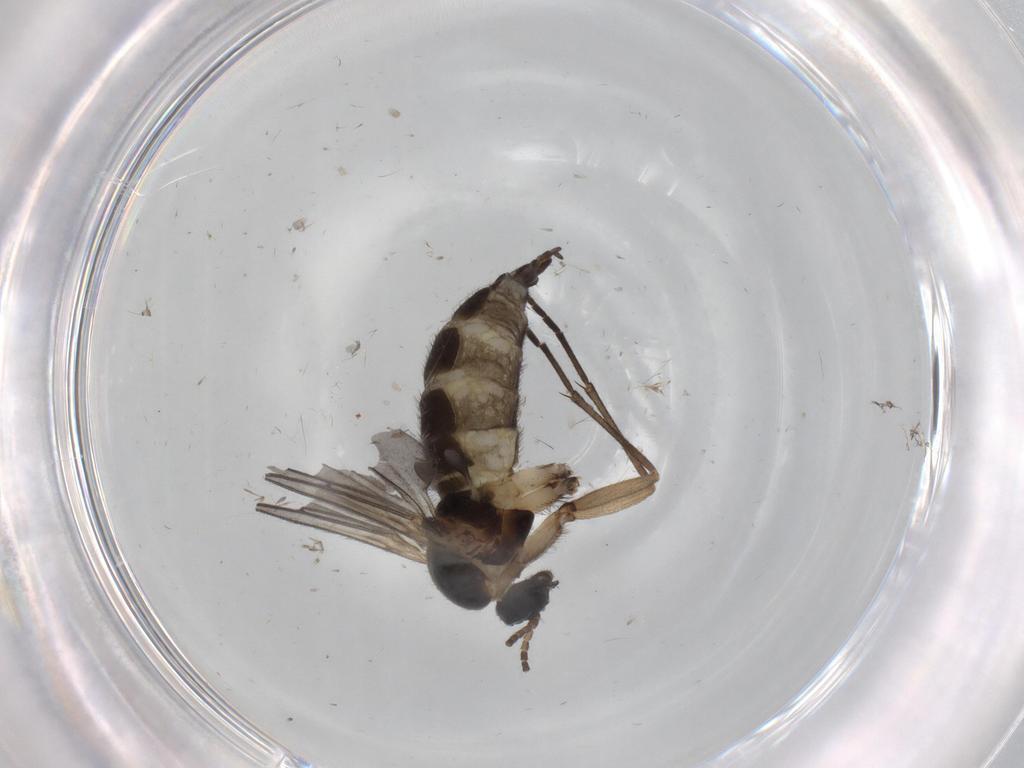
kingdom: Animalia
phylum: Arthropoda
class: Insecta
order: Diptera
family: Sciaridae
